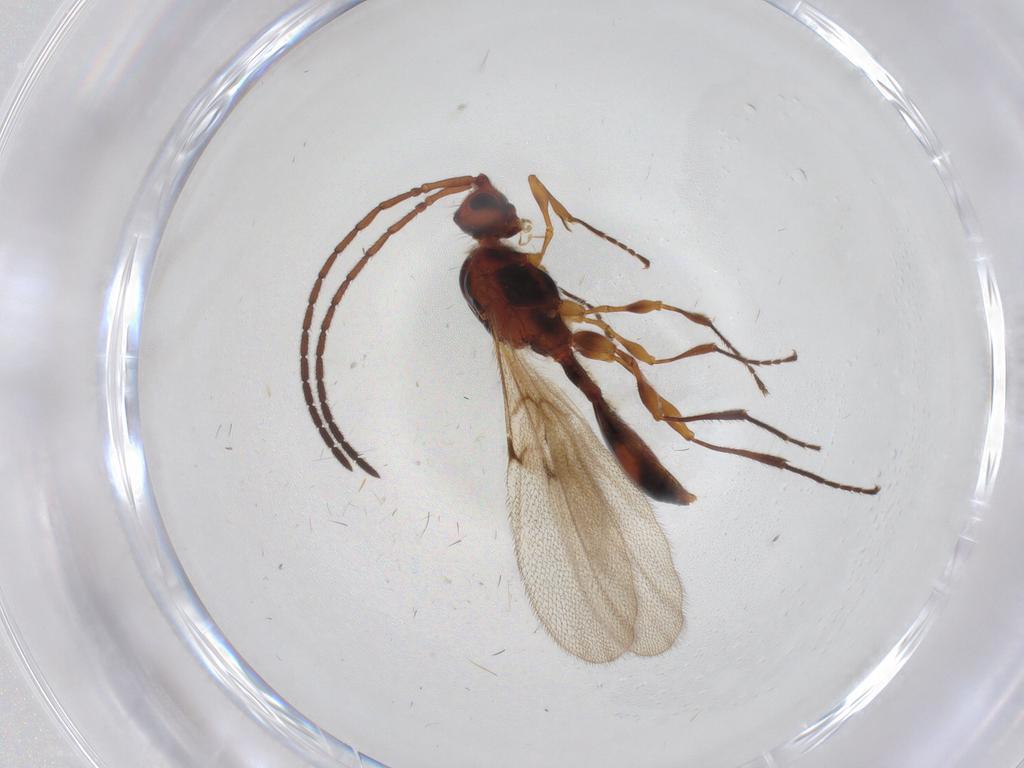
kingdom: Animalia
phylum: Arthropoda
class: Insecta
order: Hymenoptera
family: Diapriidae
